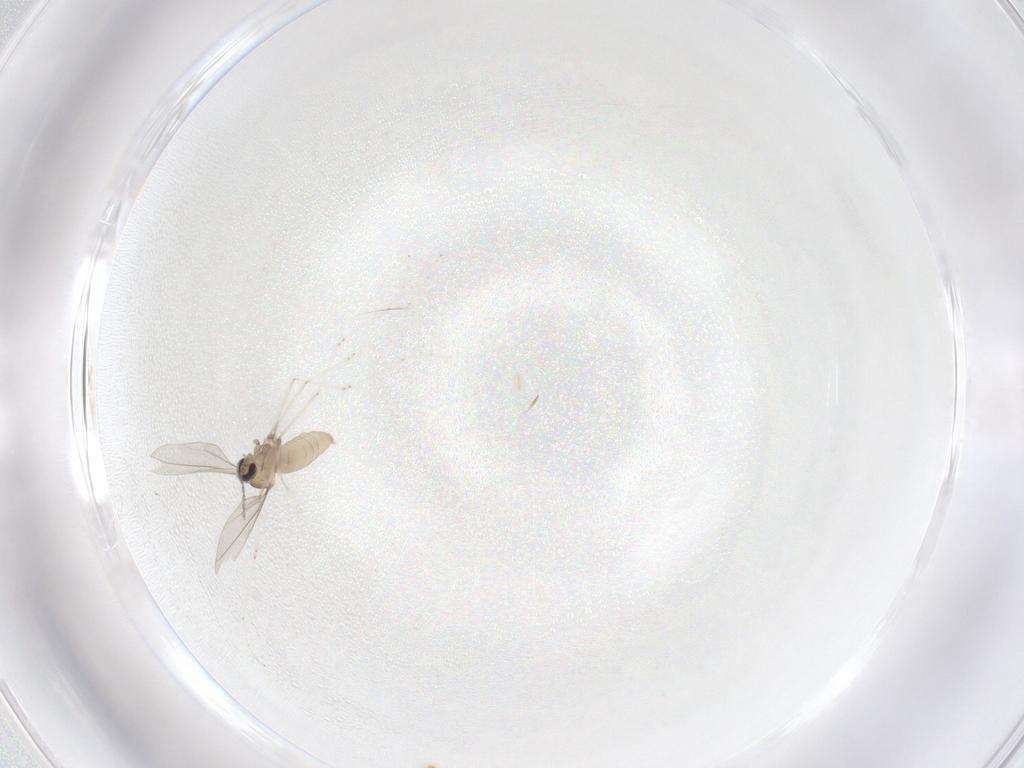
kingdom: Animalia
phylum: Arthropoda
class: Insecta
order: Diptera
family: Cecidomyiidae
